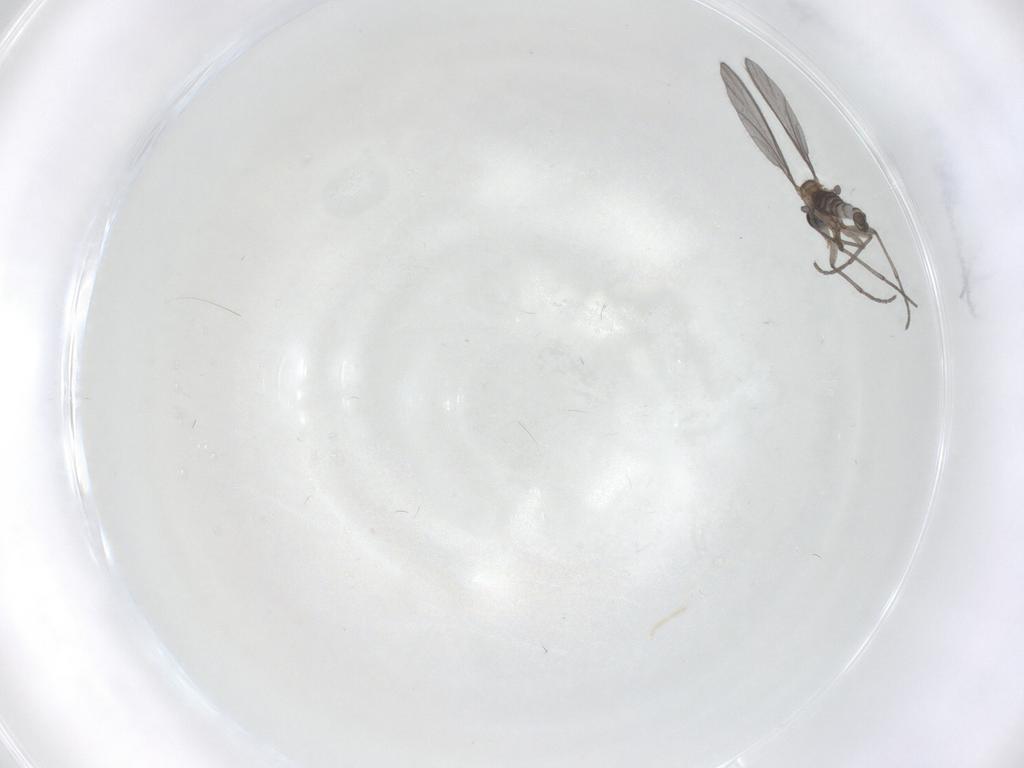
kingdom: Animalia
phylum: Arthropoda
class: Insecta
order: Diptera
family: Sciaridae
